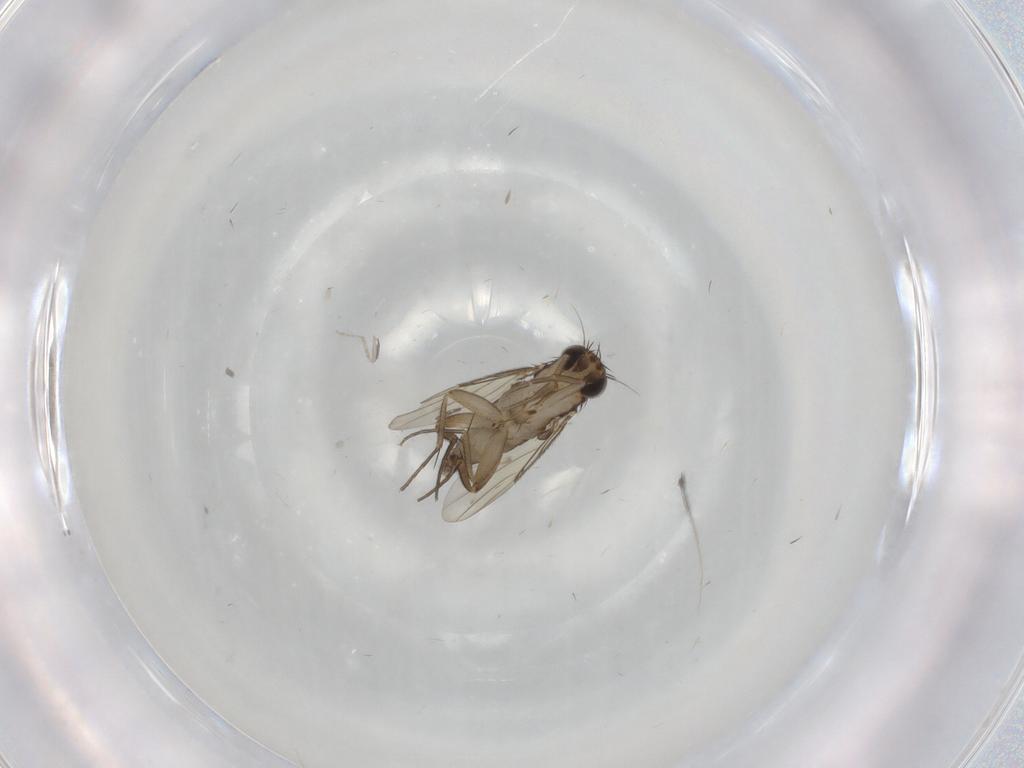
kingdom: Animalia
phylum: Arthropoda
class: Insecta
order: Diptera
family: Phoridae
